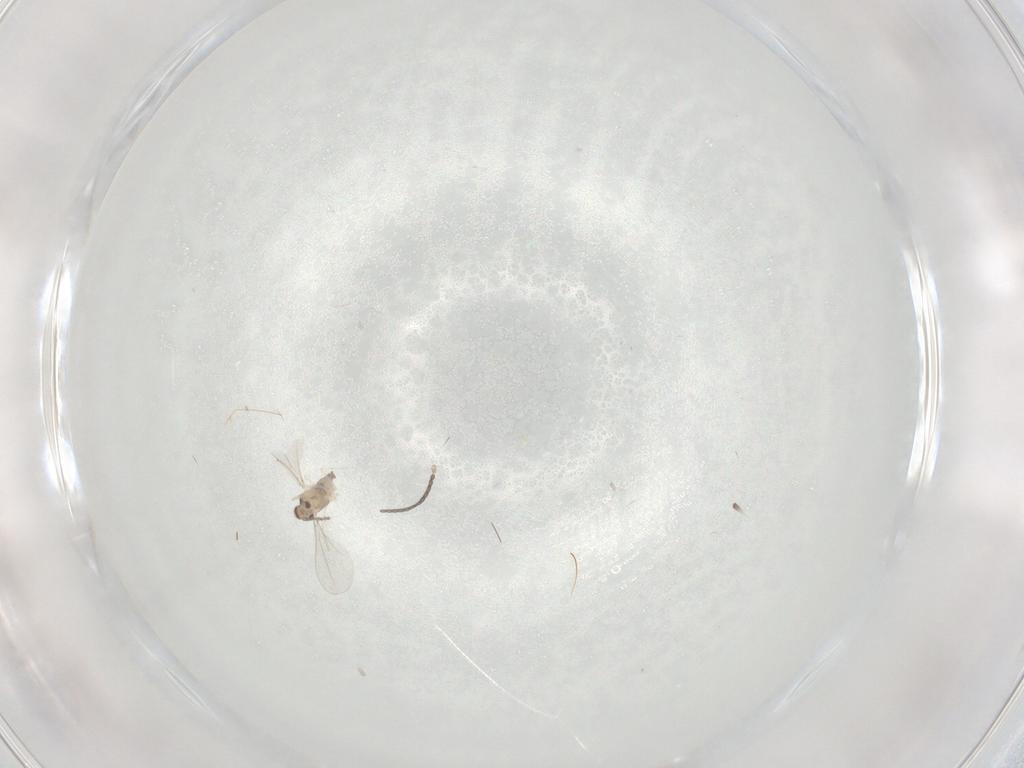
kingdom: Animalia
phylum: Arthropoda
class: Insecta
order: Diptera
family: Cecidomyiidae
